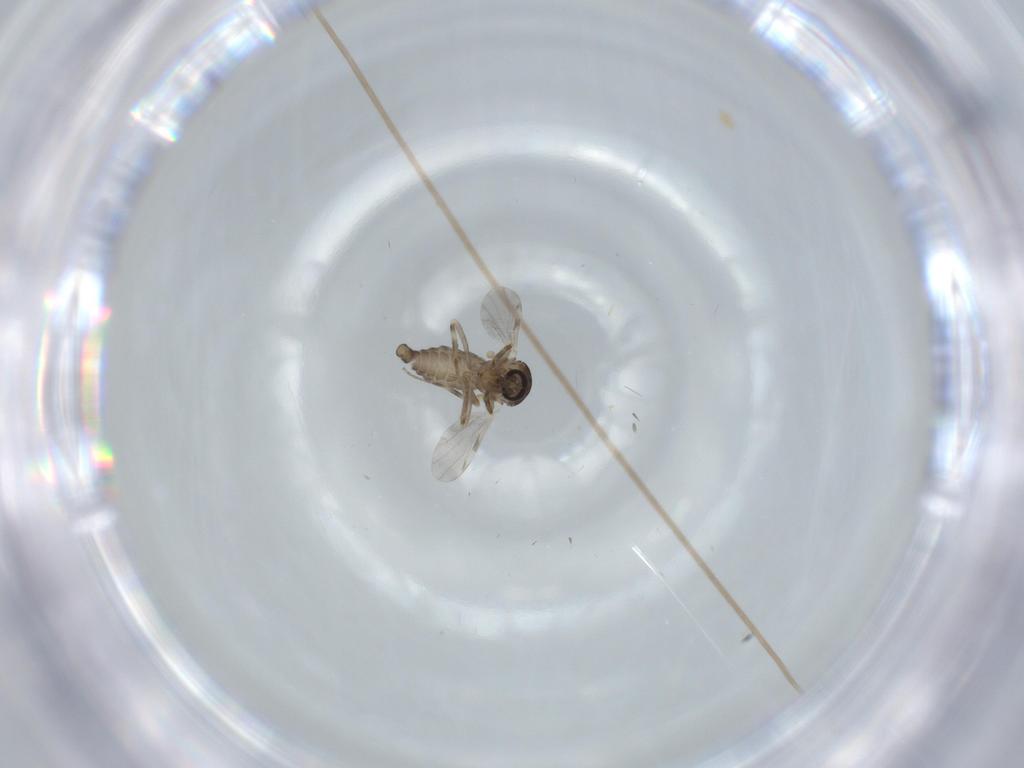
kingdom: Animalia
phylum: Arthropoda
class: Insecta
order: Diptera
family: Ceratopogonidae
